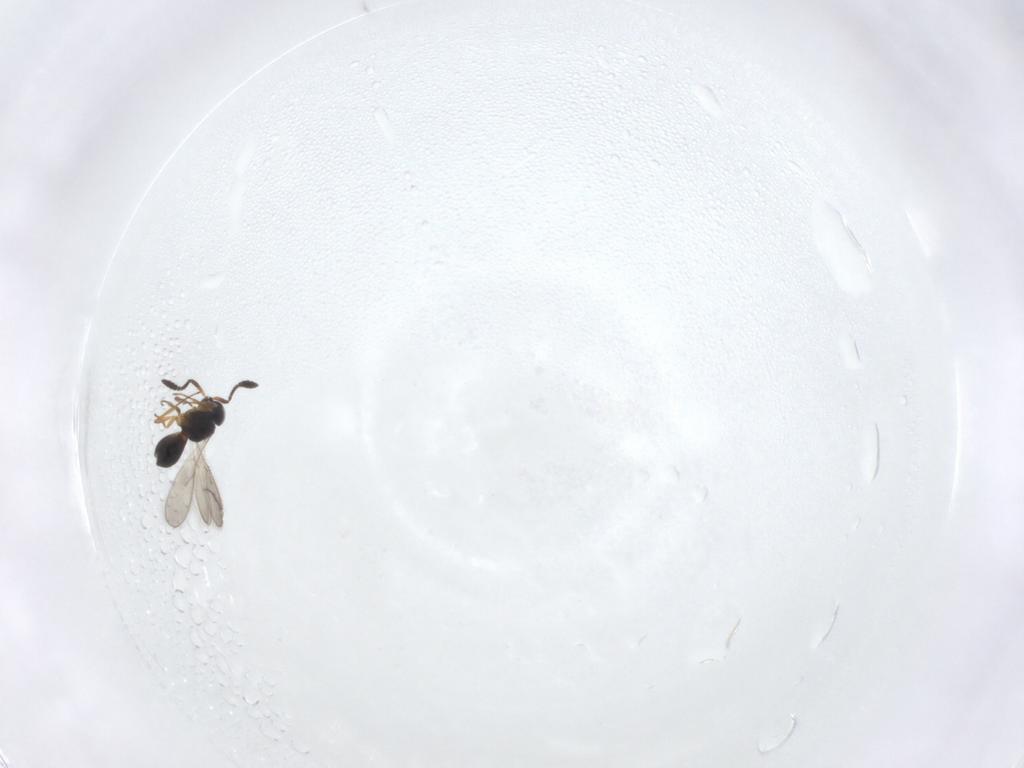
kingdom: Animalia
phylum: Arthropoda
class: Insecta
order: Hymenoptera
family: Scelionidae
